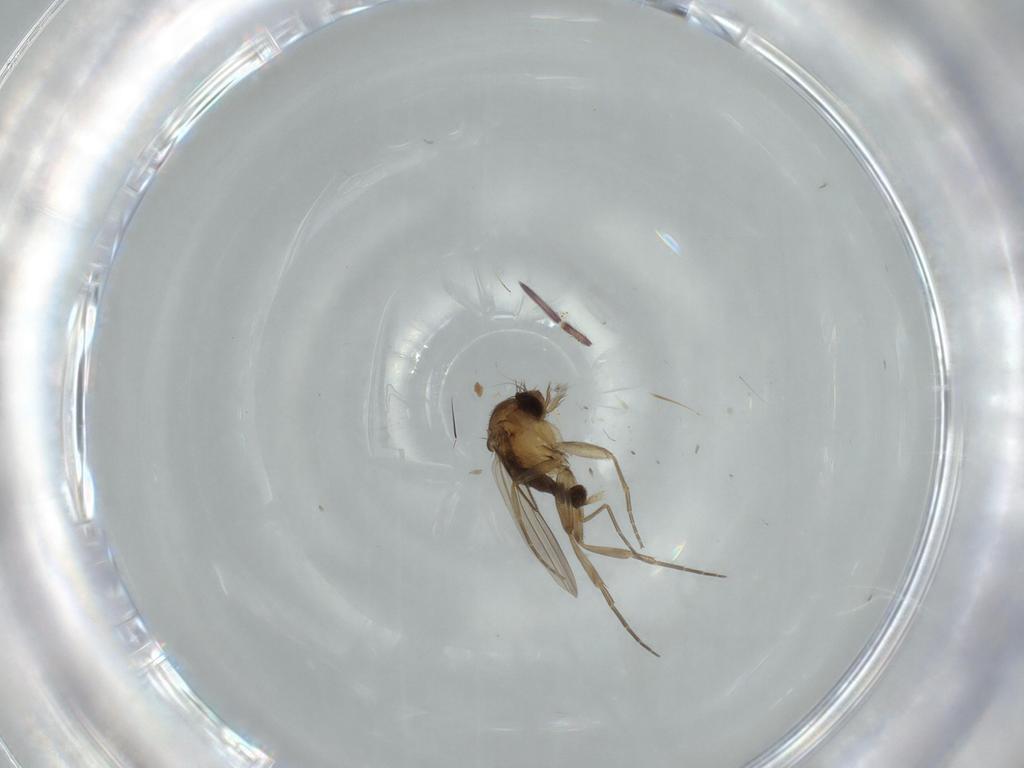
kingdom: Animalia
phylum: Arthropoda
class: Insecta
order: Diptera
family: Phoridae
